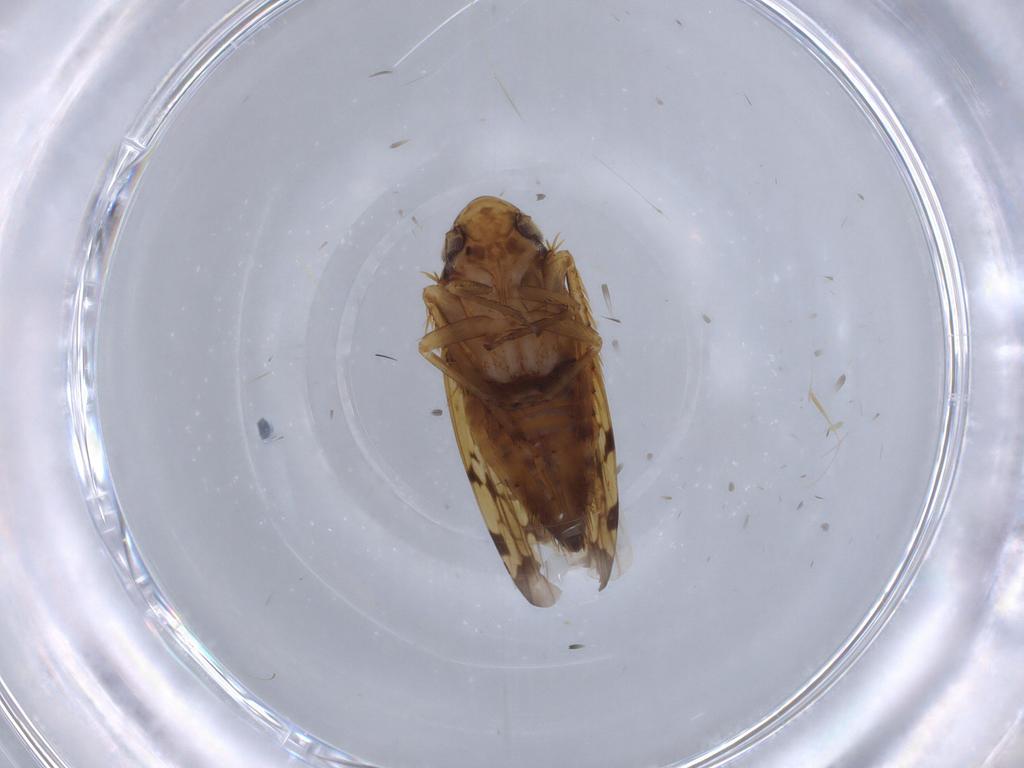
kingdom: Animalia
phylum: Arthropoda
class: Insecta
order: Hemiptera
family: Cicadellidae
